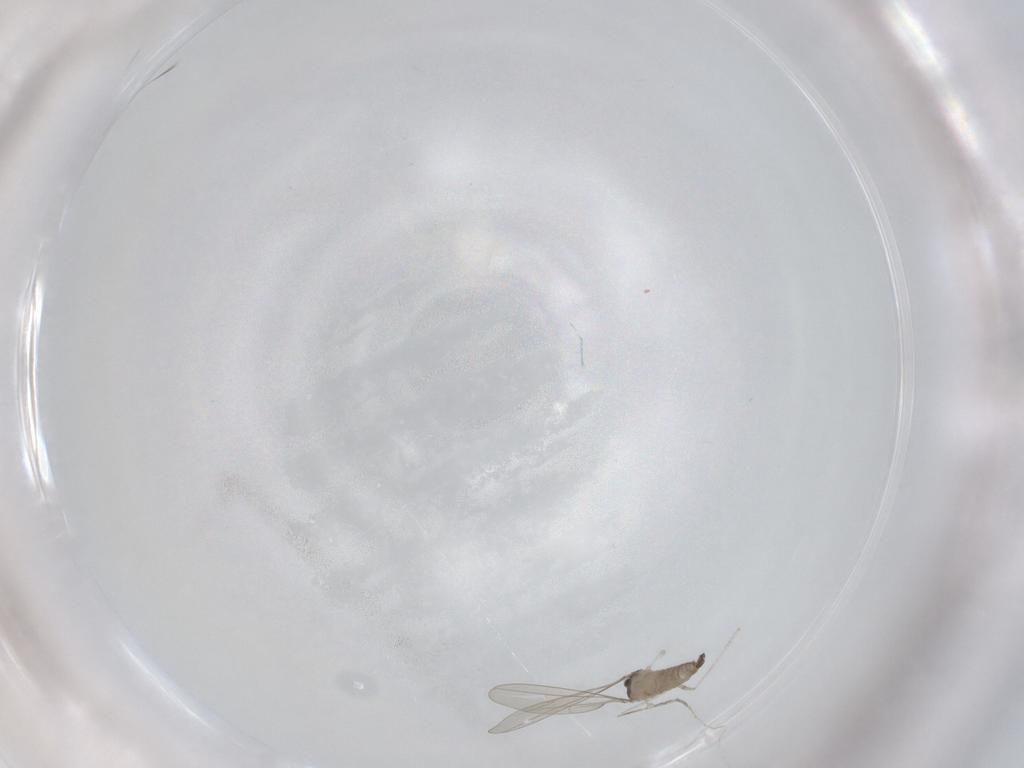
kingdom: Animalia
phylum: Arthropoda
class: Insecta
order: Diptera
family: Cecidomyiidae
